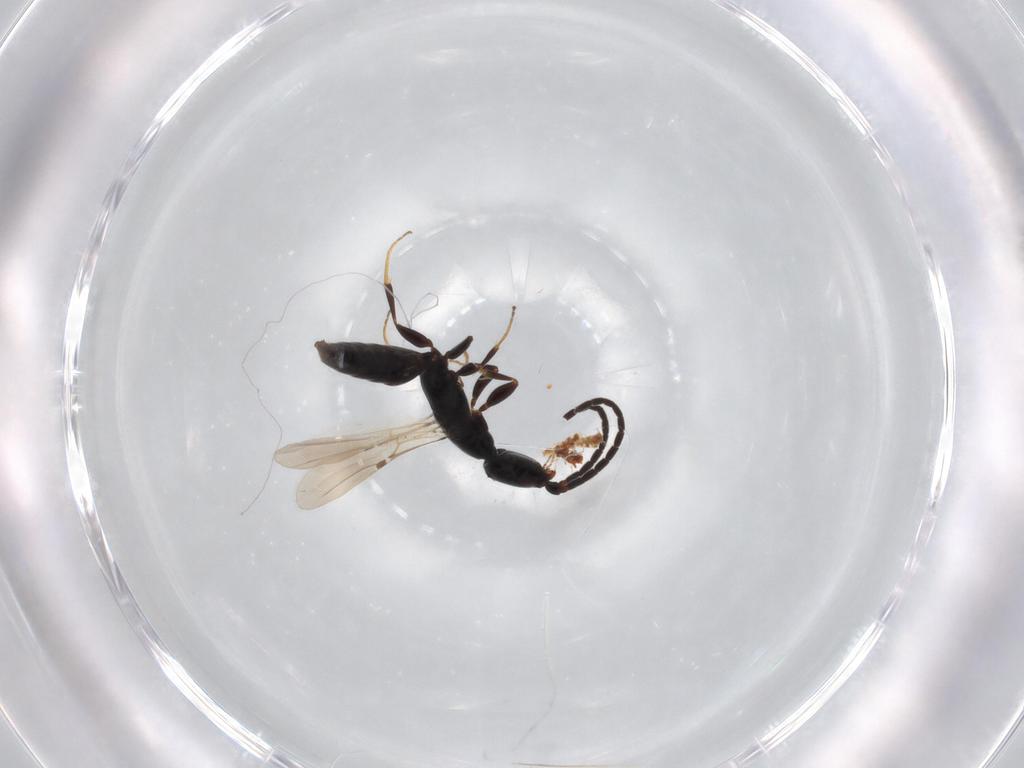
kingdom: Animalia
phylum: Arthropoda
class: Insecta
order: Hymenoptera
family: Bethylidae
